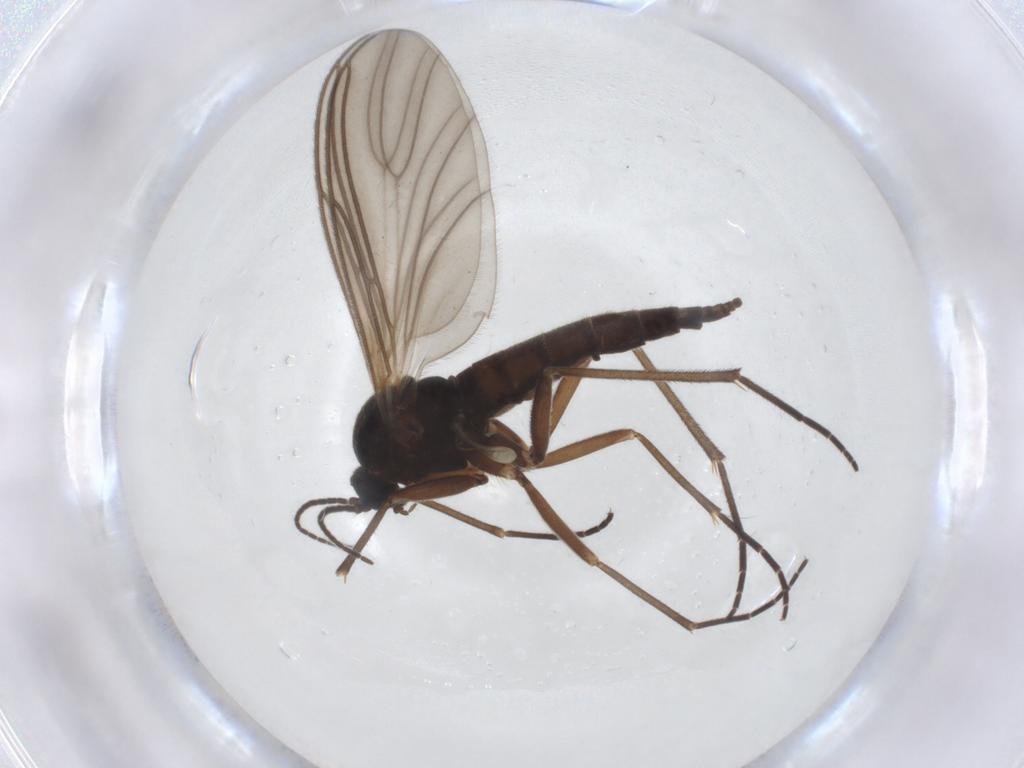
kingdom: Animalia
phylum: Arthropoda
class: Insecta
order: Diptera
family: Sciaridae
